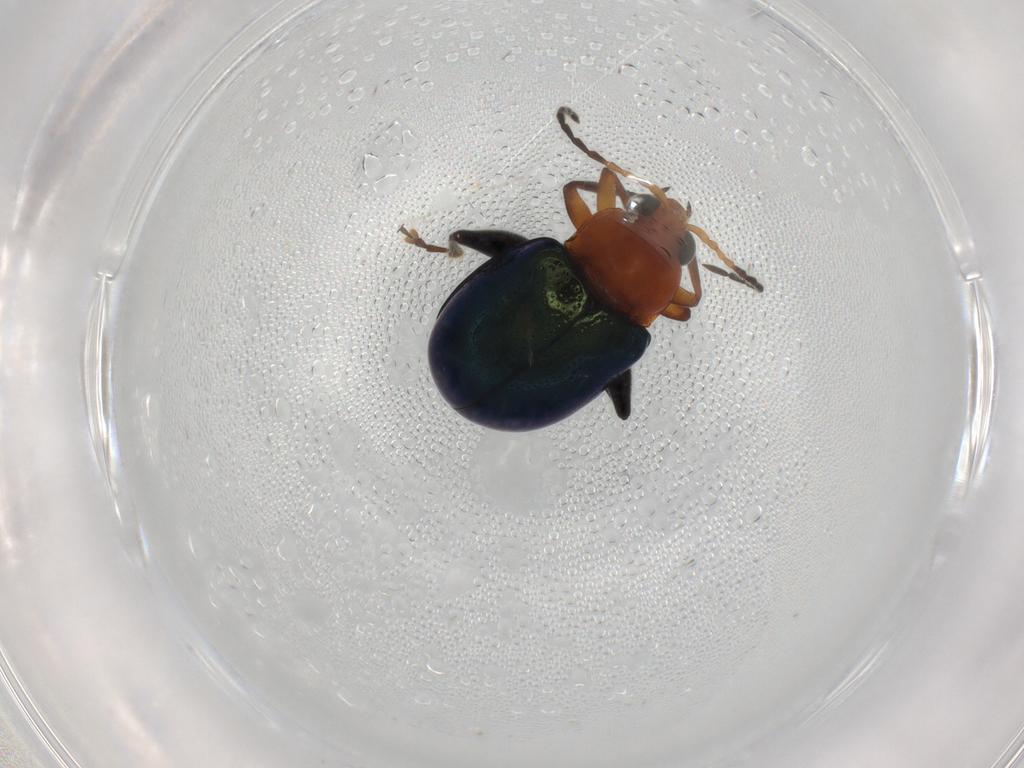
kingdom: Animalia
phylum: Arthropoda
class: Insecta
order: Coleoptera
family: Chrysomelidae
